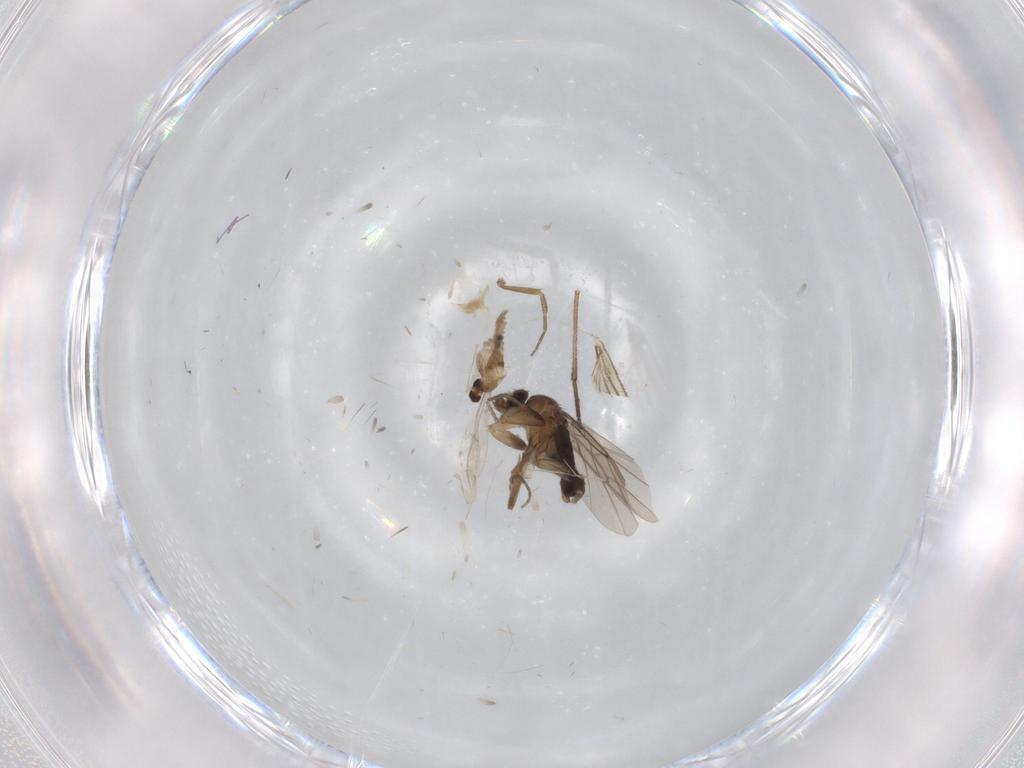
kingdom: Animalia
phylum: Arthropoda
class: Insecta
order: Diptera
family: Phoridae
